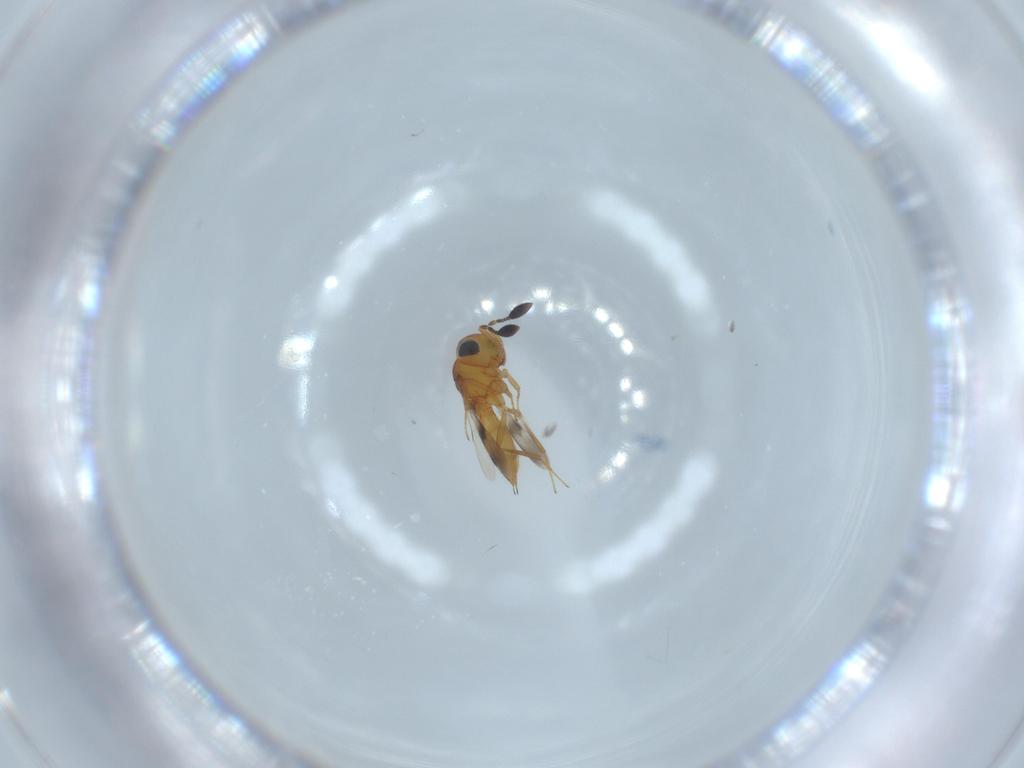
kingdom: Animalia
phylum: Arthropoda
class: Insecta
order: Hymenoptera
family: Scelionidae
